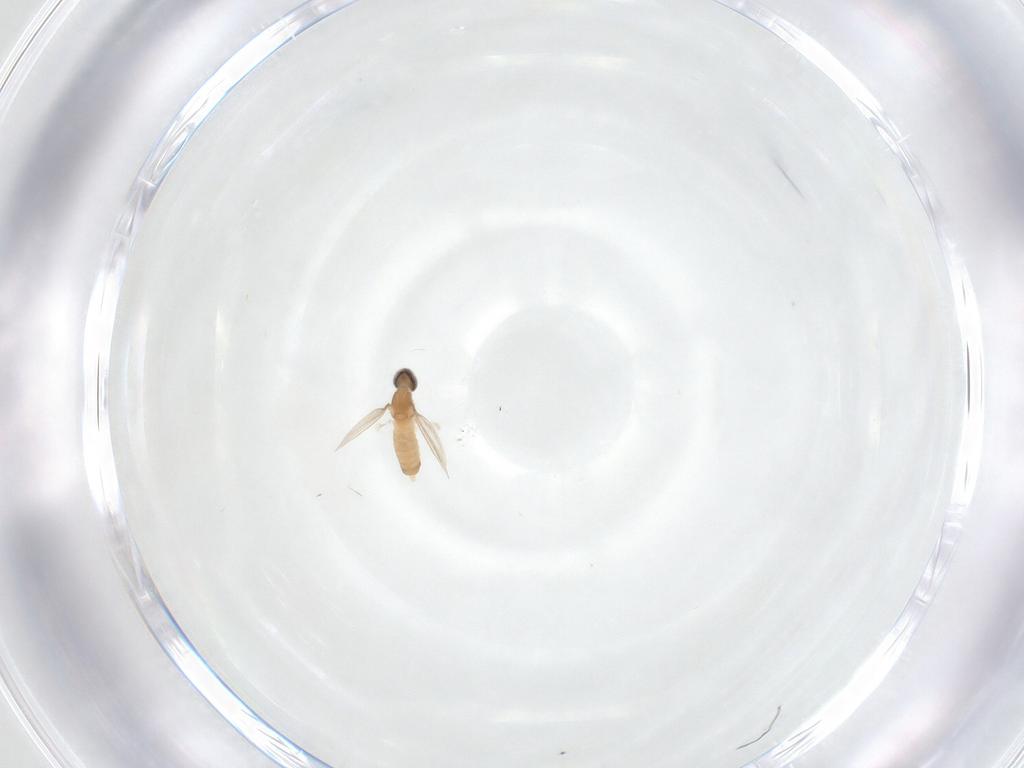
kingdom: Animalia
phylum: Arthropoda
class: Insecta
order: Diptera
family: Cecidomyiidae
